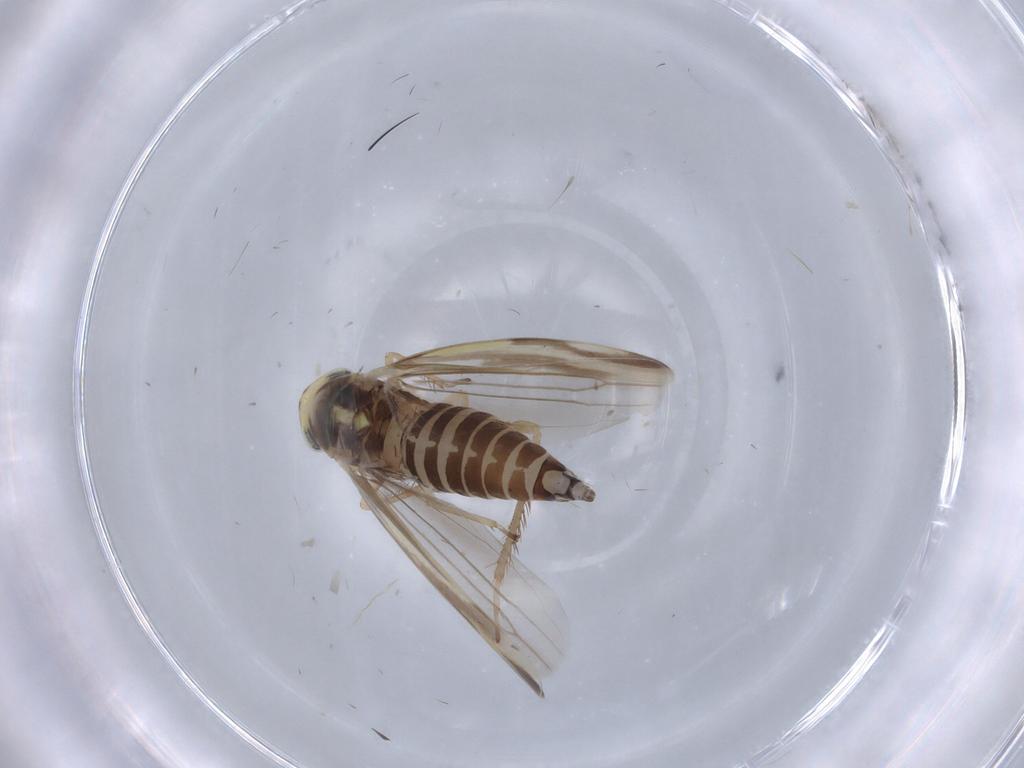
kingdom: Animalia
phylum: Arthropoda
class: Insecta
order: Hemiptera
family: Cicadellidae
